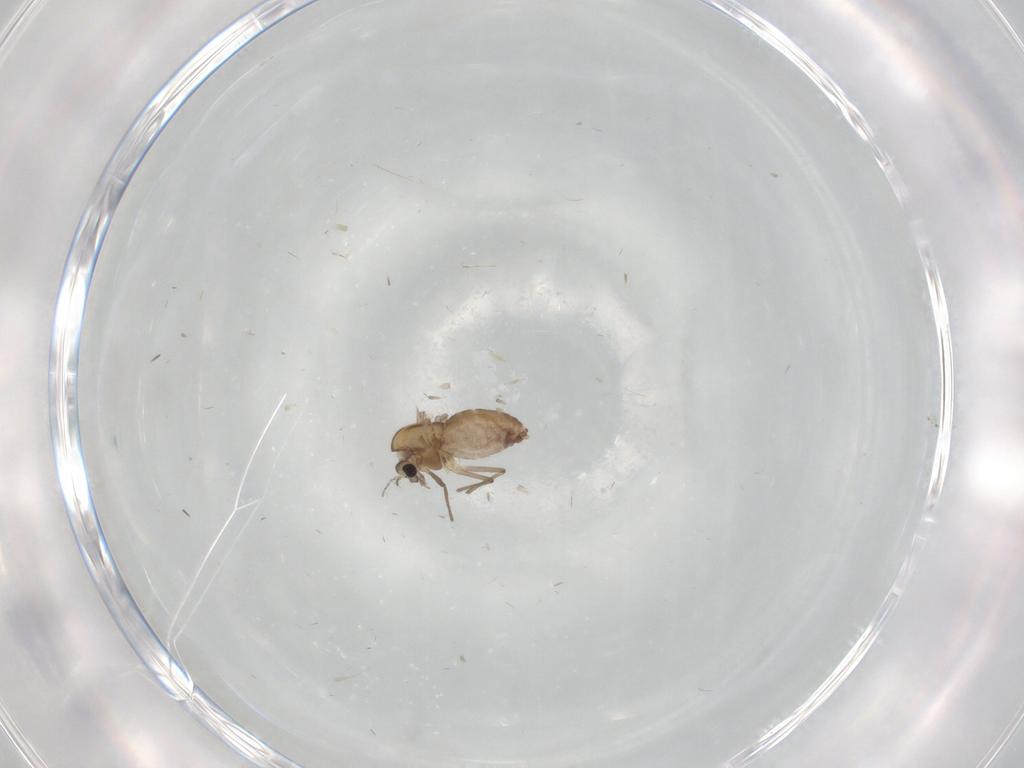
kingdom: Animalia
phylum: Arthropoda
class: Insecta
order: Diptera
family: Chironomidae
